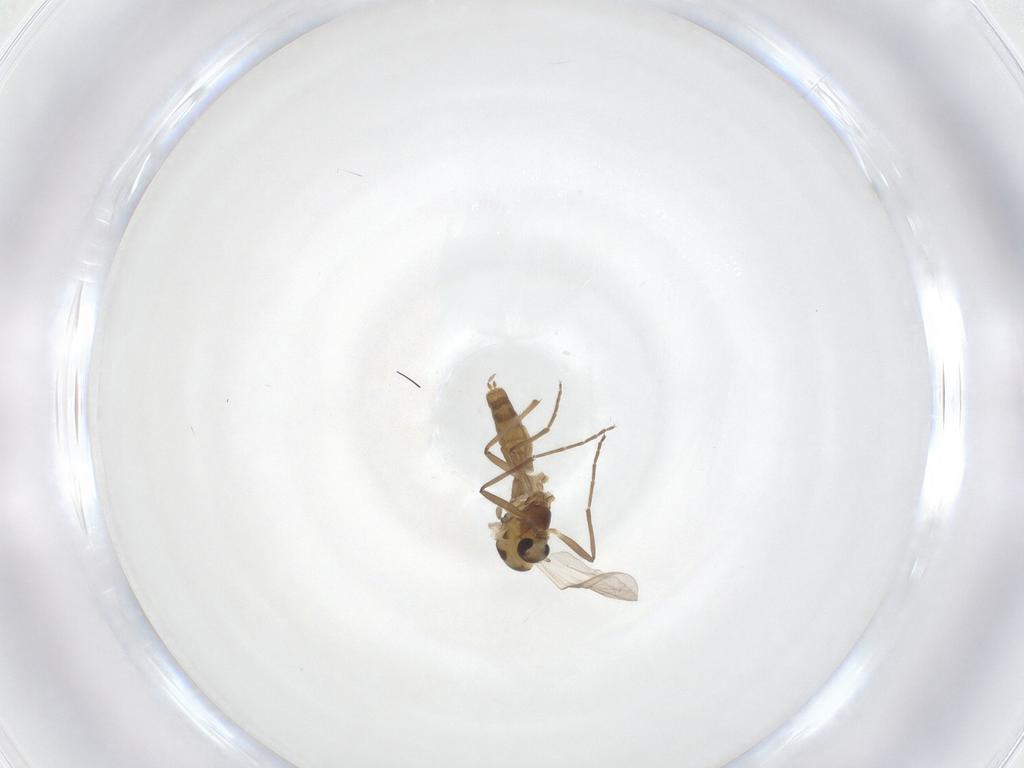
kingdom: Animalia
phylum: Arthropoda
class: Insecta
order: Diptera
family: Chironomidae
